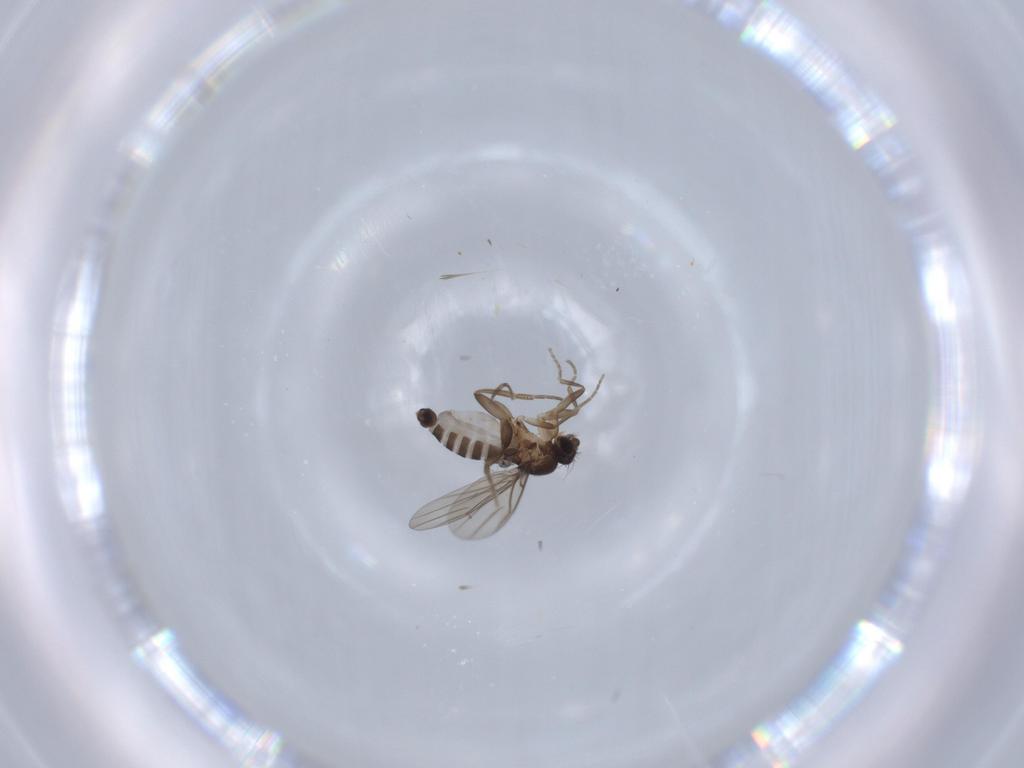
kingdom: Animalia
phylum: Arthropoda
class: Insecta
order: Diptera
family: Phoridae
